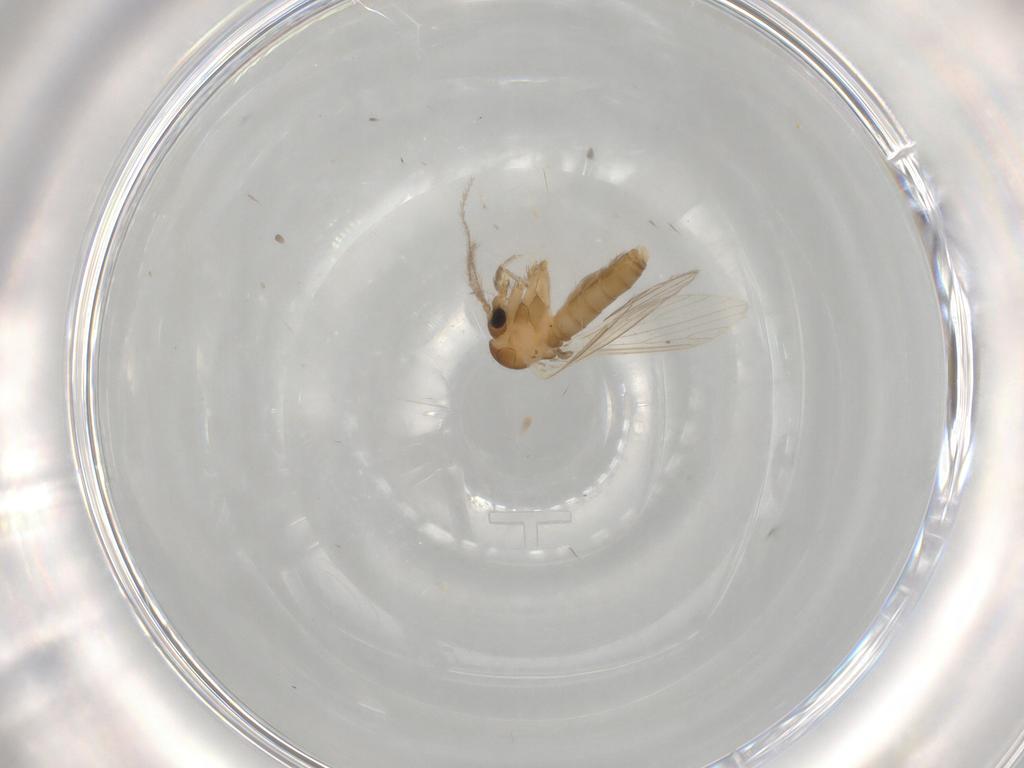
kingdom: Animalia
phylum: Arthropoda
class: Insecta
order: Diptera
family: Psychodidae
